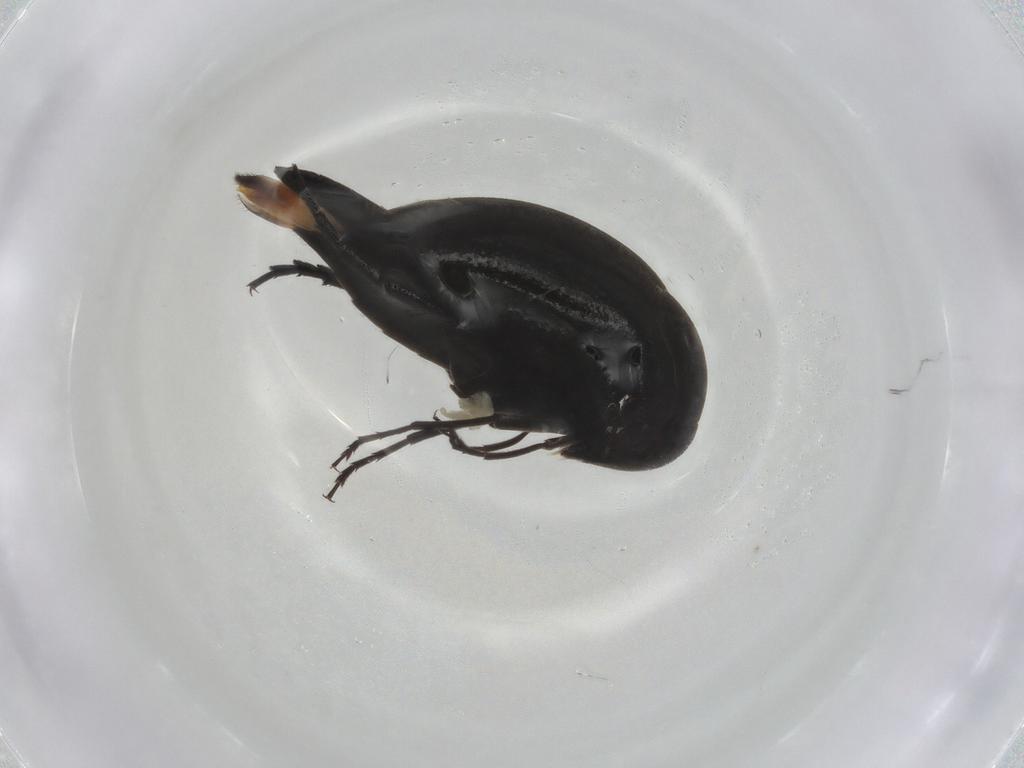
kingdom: Animalia
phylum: Arthropoda
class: Insecta
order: Coleoptera
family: Mordellidae
